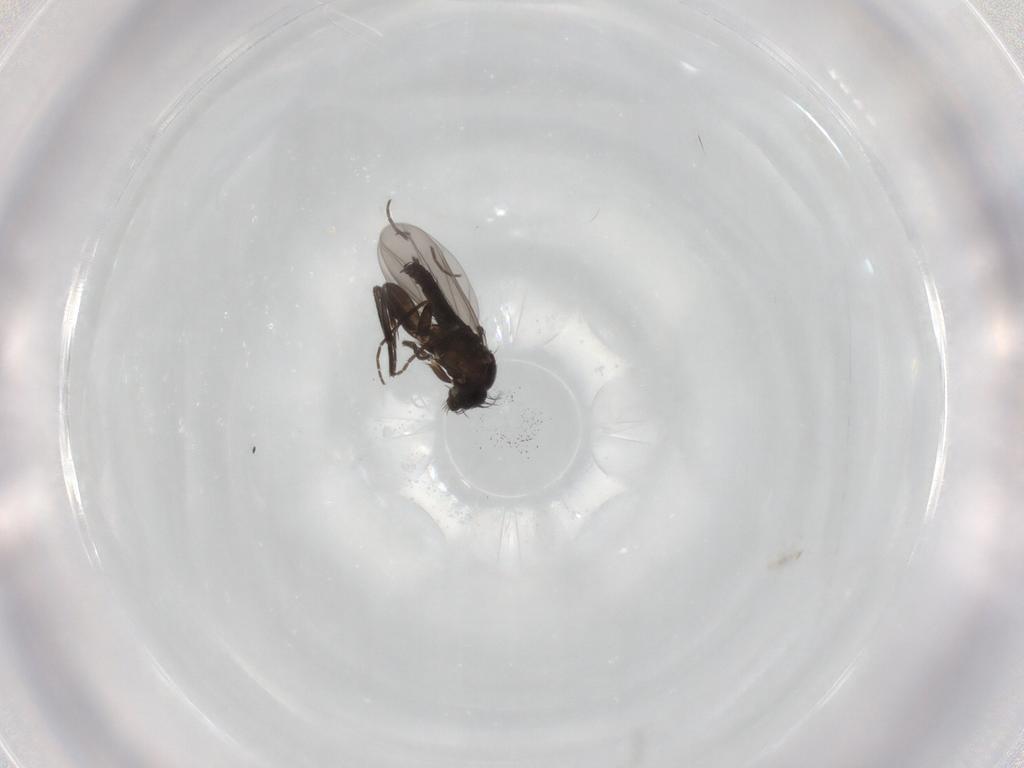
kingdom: Animalia
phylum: Arthropoda
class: Insecta
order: Diptera
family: Phoridae
